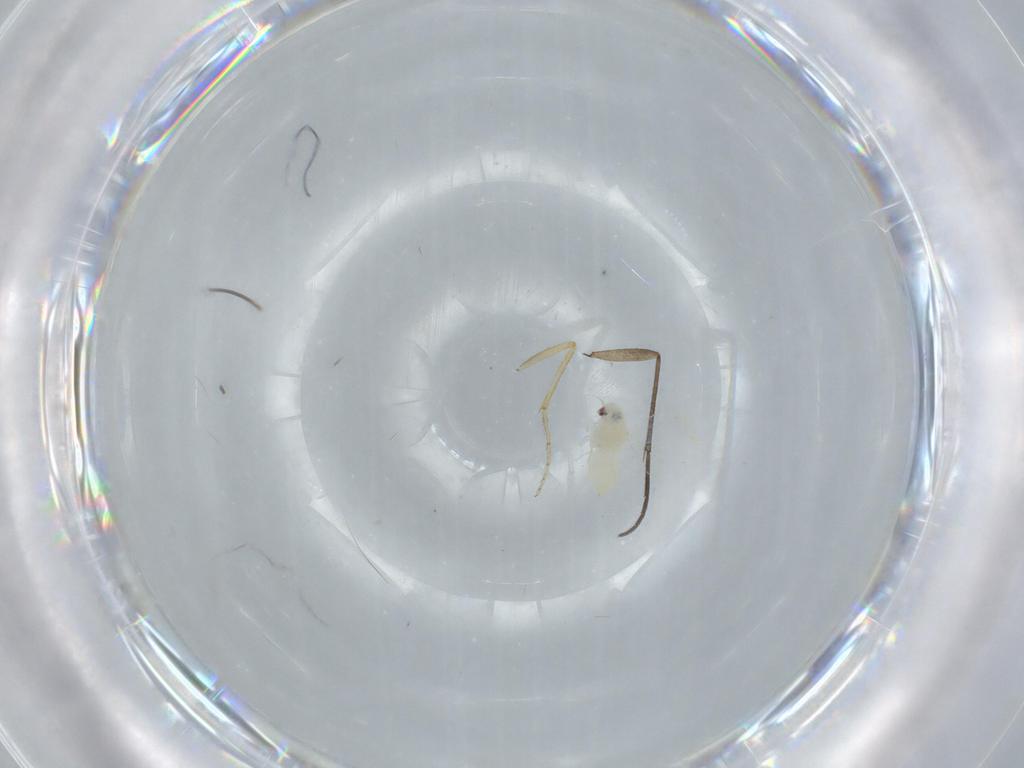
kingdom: Animalia
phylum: Arthropoda
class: Insecta
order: Hemiptera
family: Aleyrodidae
